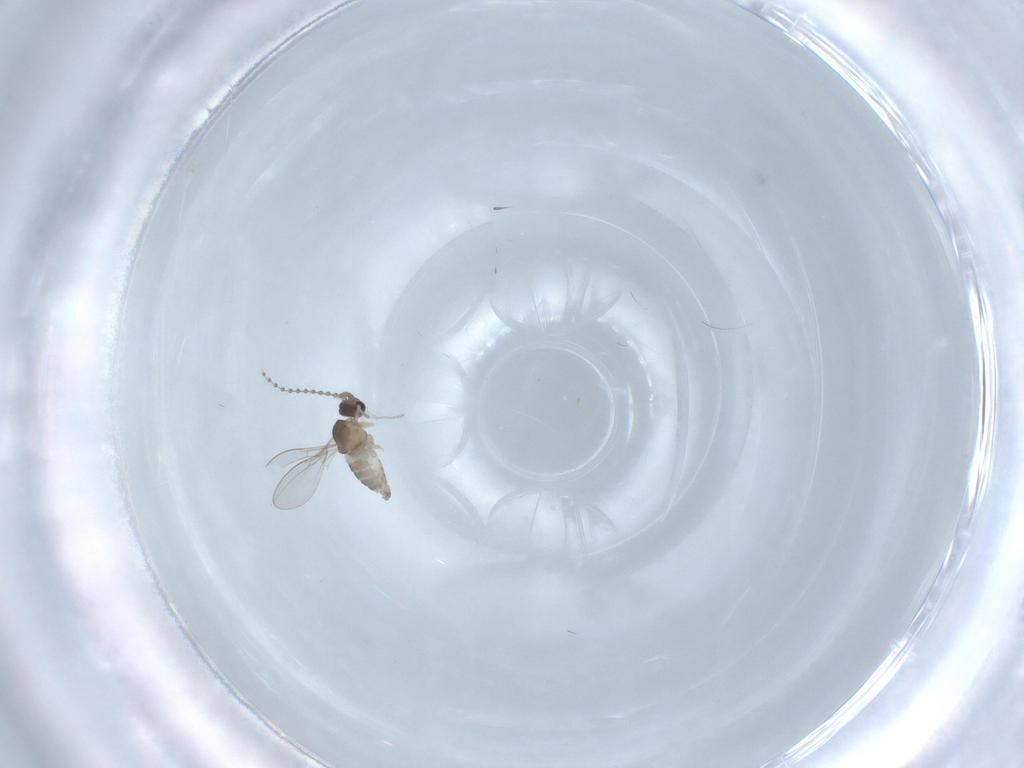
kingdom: Animalia
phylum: Arthropoda
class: Insecta
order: Diptera
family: Cecidomyiidae
